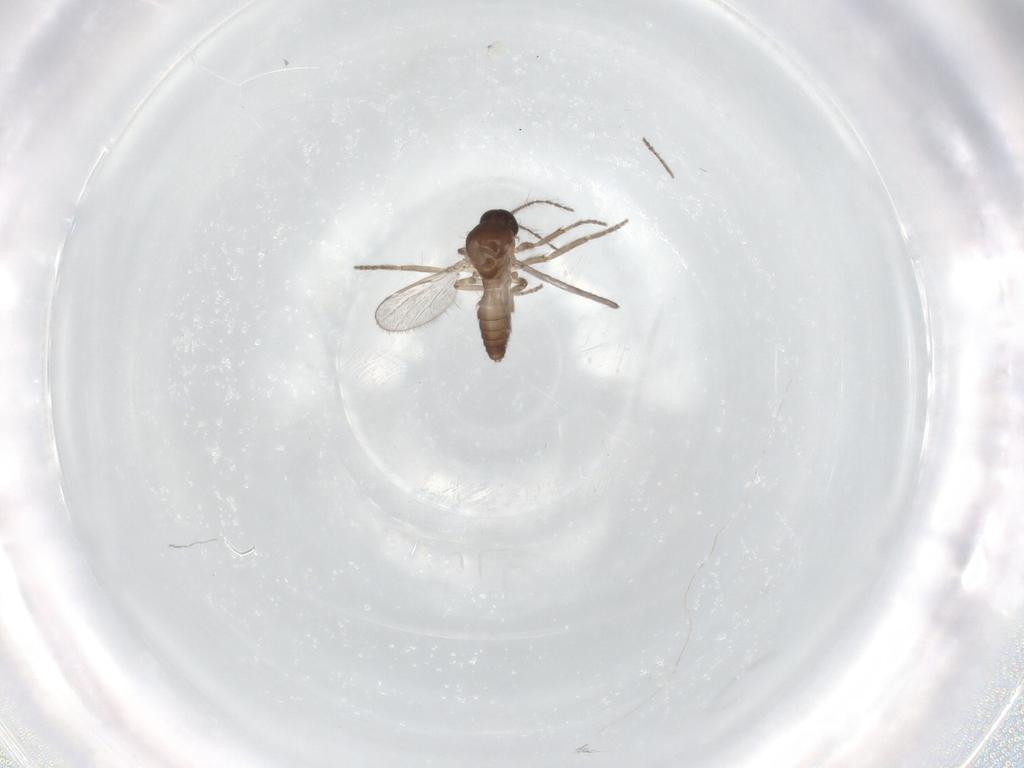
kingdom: Animalia
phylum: Arthropoda
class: Insecta
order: Diptera
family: Ceratopogonidae
